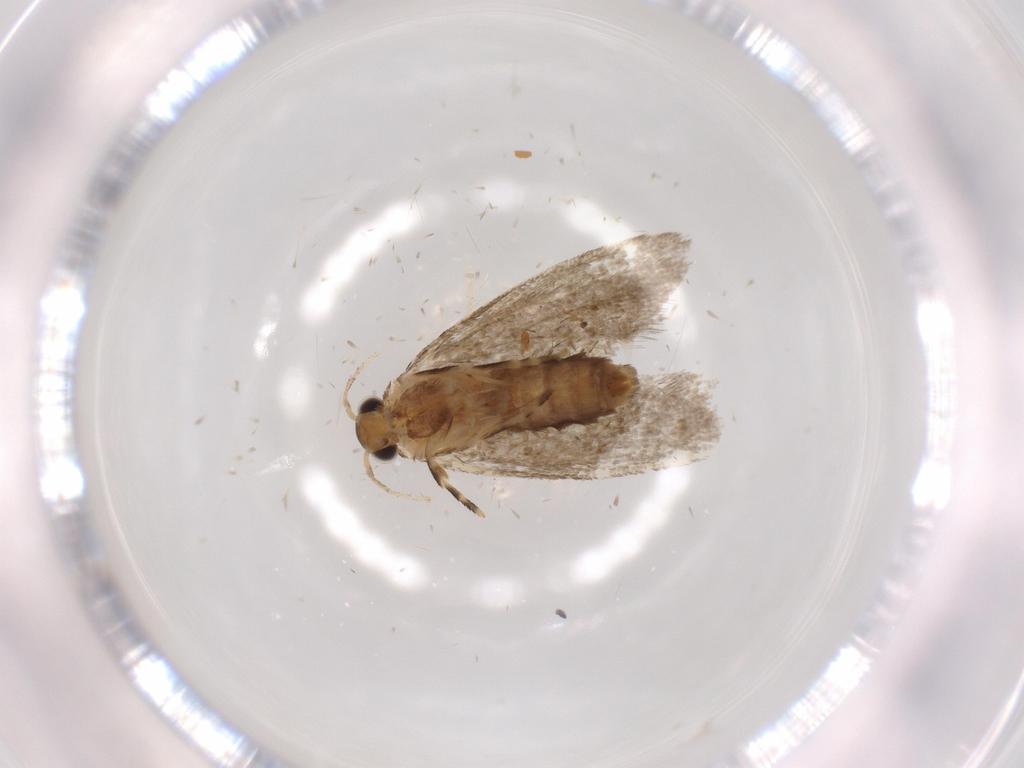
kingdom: Animalia
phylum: Arthropoda
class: Insecta
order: Lepidoptera
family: Tineidae
